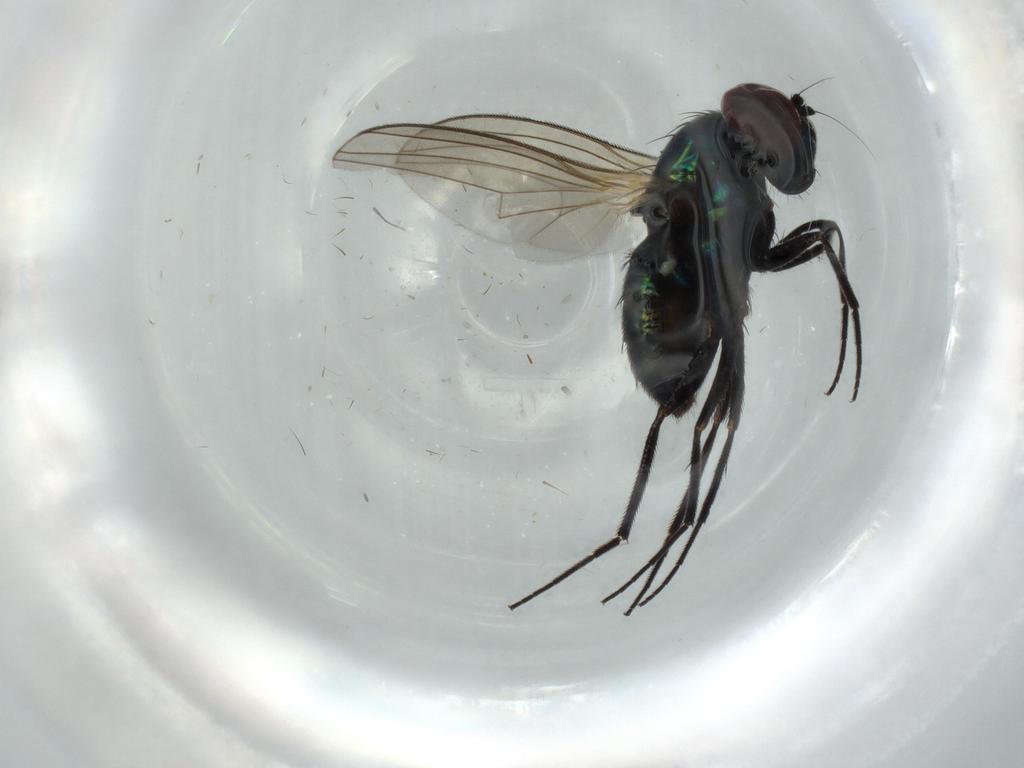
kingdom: Animalia
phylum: Arthropoda
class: Insecta
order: Diptera
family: Dolichopodidae
